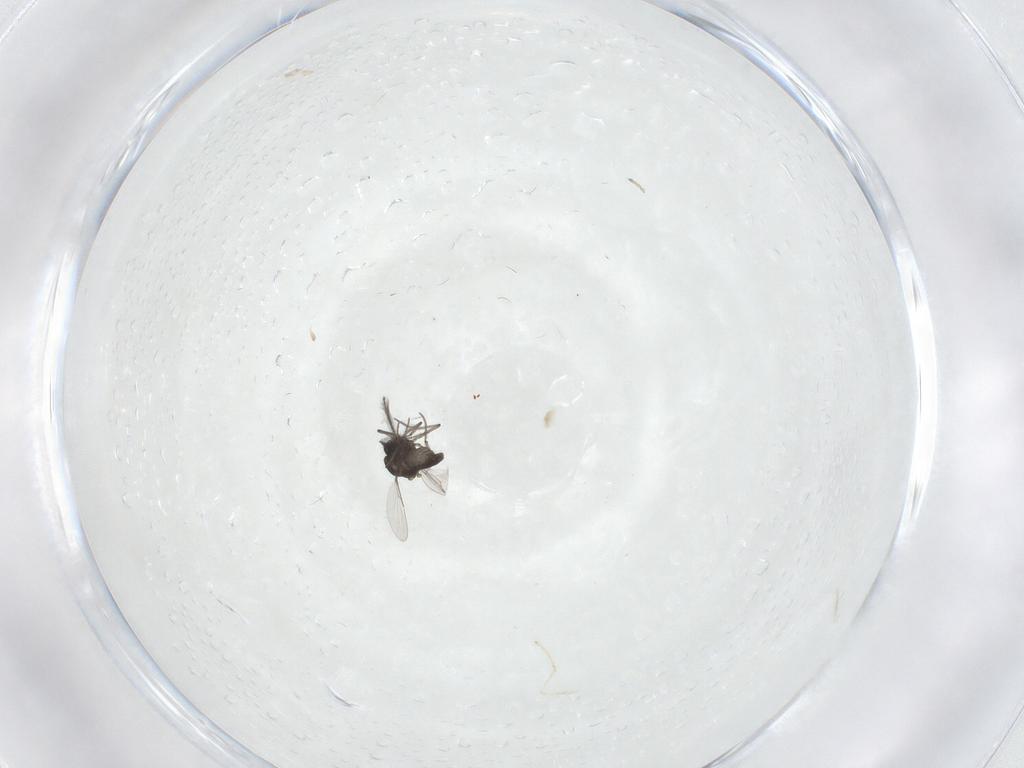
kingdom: Animalia
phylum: Arthropoda
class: Insecta
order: Diptera
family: Ceratopogonidae
